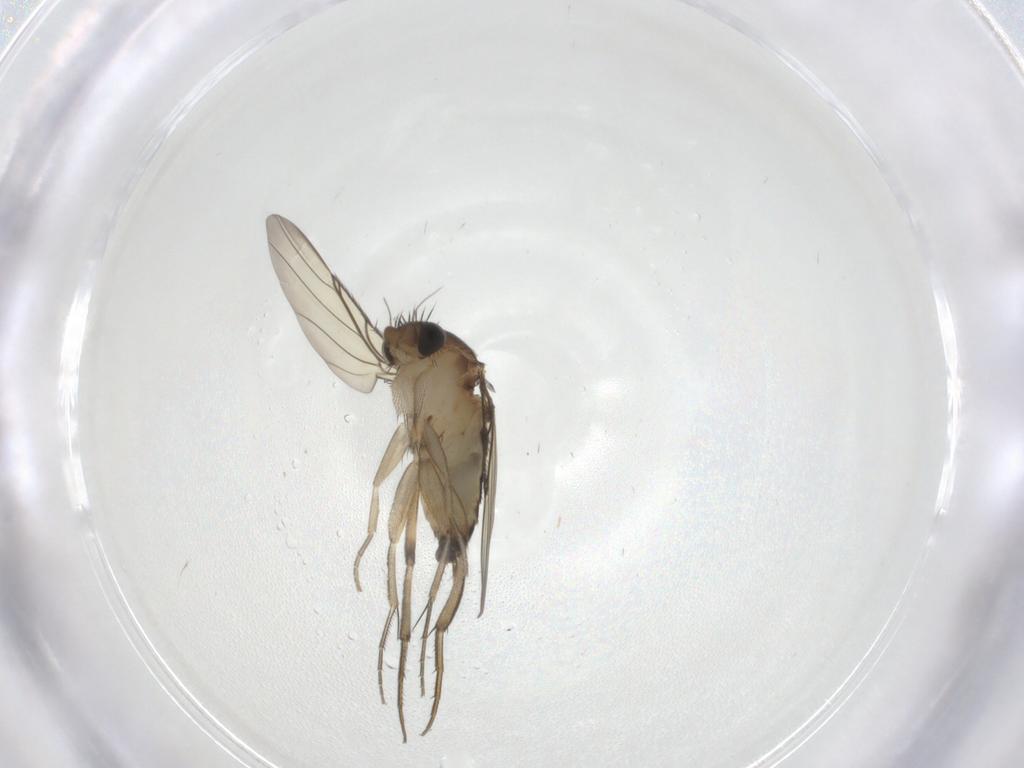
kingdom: Animalia
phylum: Arthropoda
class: Insecta
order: Diptera
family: Phoridae
